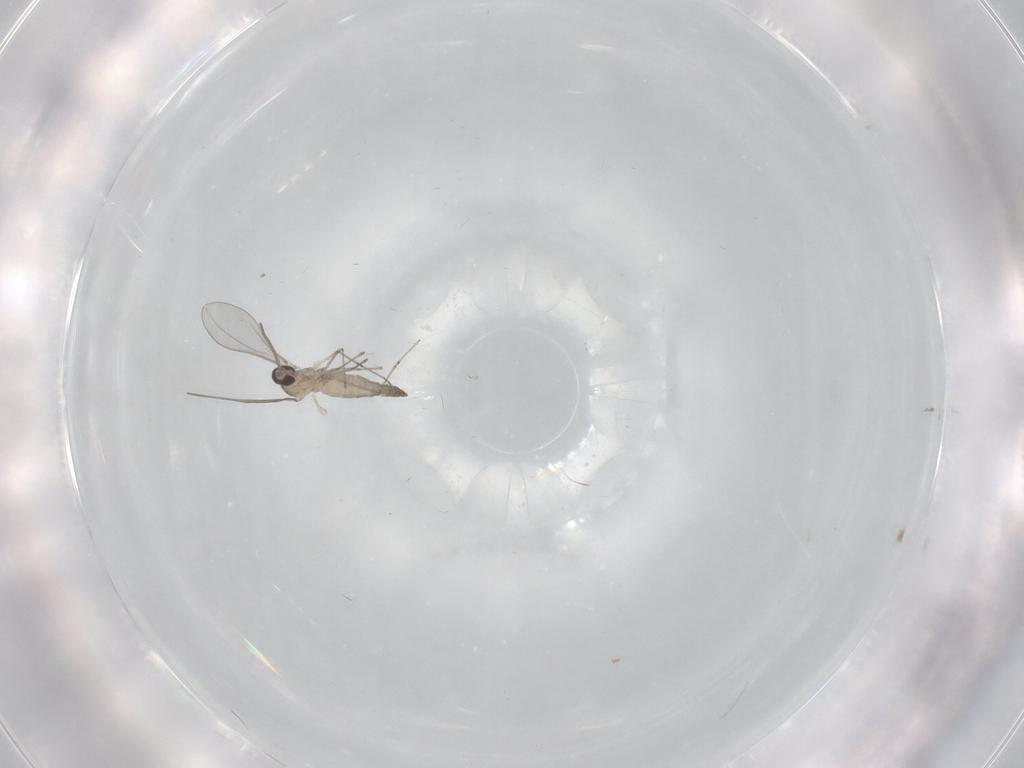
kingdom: Animalia
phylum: Arthropoda
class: Insecta
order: Diptera
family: Cecidomyiidae
